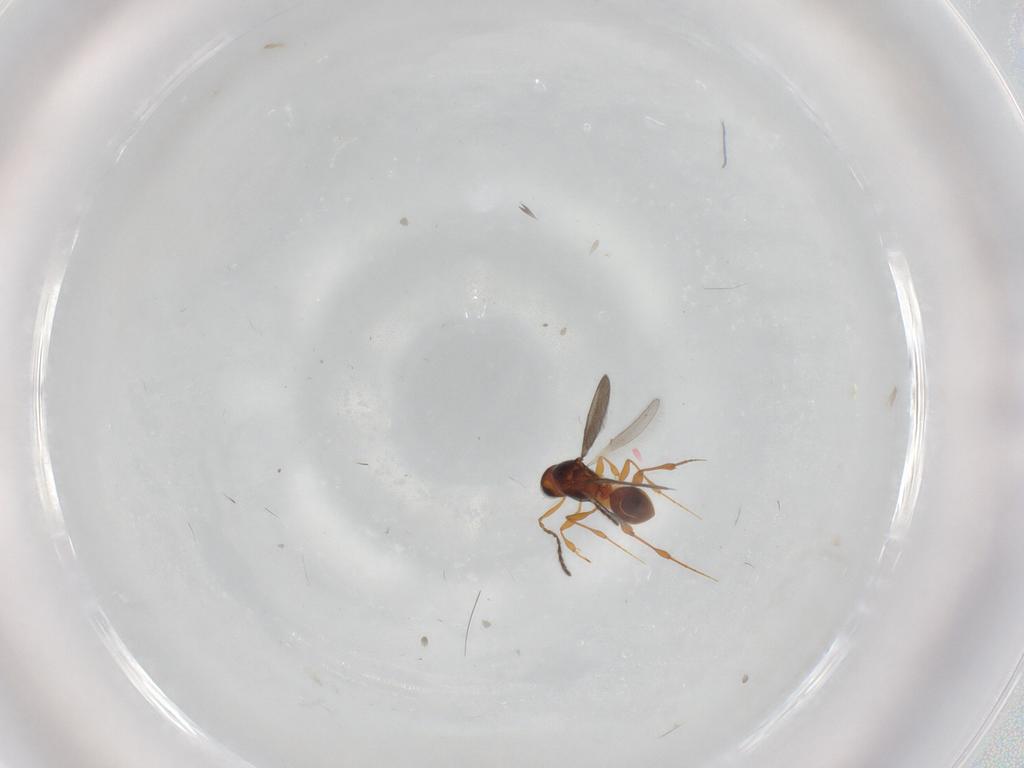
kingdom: Animalia
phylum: Arthropoda
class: Insecta
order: Hymenoptera
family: Platygastridae
